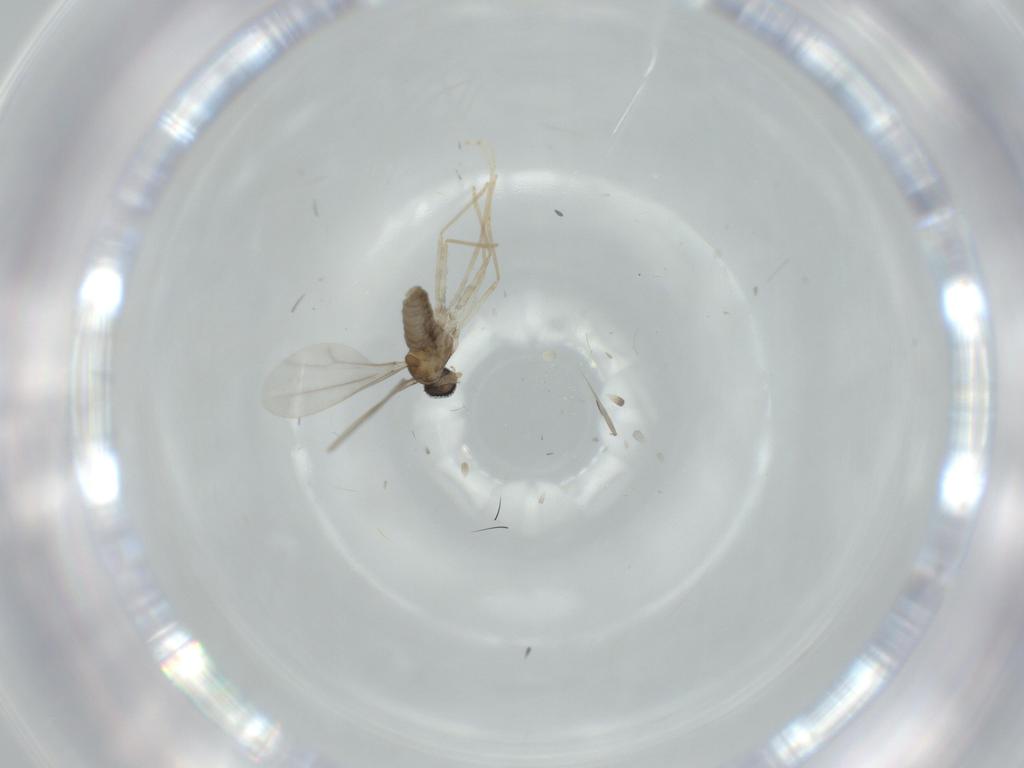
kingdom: Animalia
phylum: Arthropoda
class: Insecta
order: Diptera
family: Cecidomyiidae
